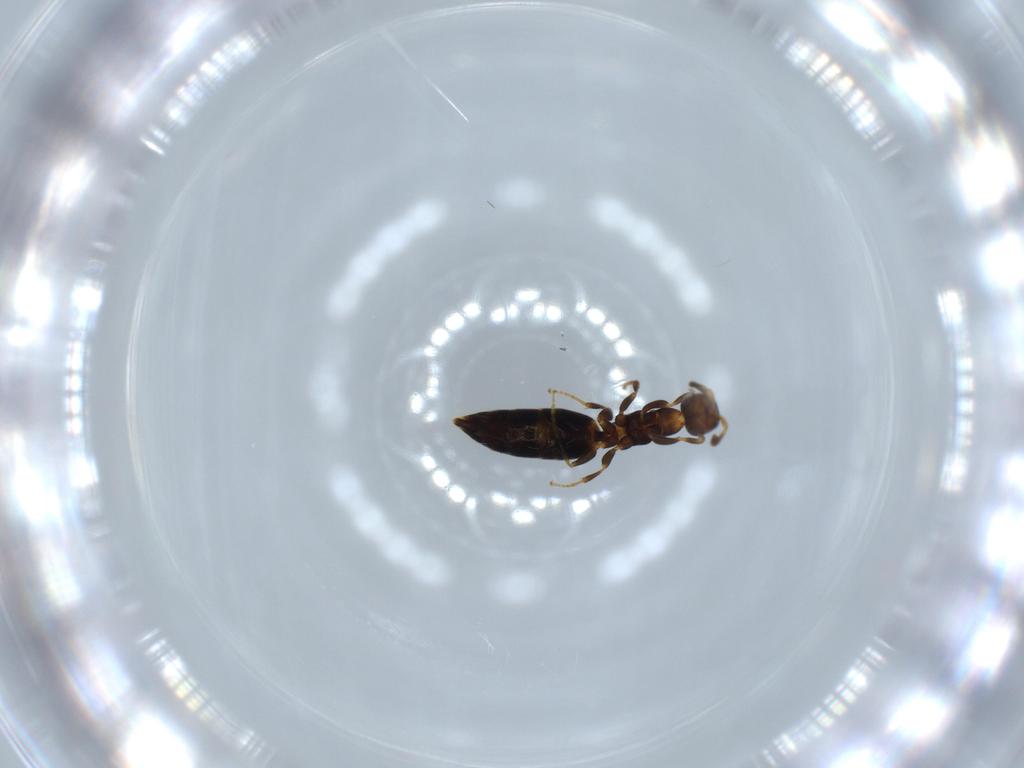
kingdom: Animalia
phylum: Arthropoda
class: Insecta
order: Hymenoptera
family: Bethylidae
